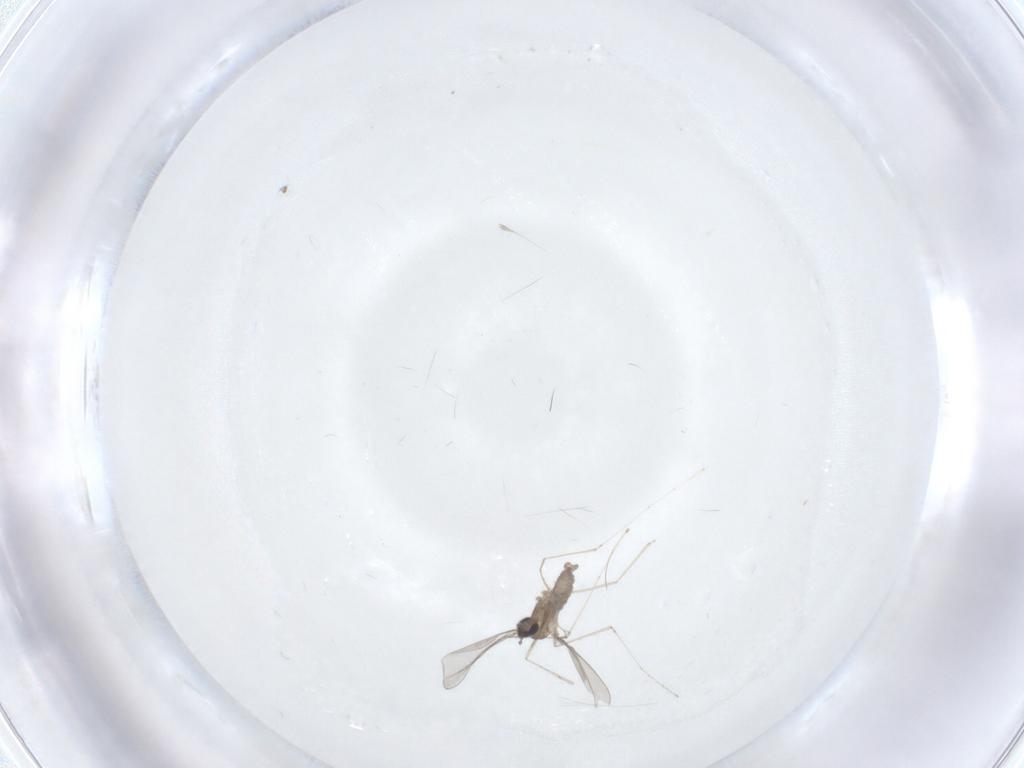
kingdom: Animalia
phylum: Arthropoda
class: Insecta
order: Diptera
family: Cecidomyiidae
